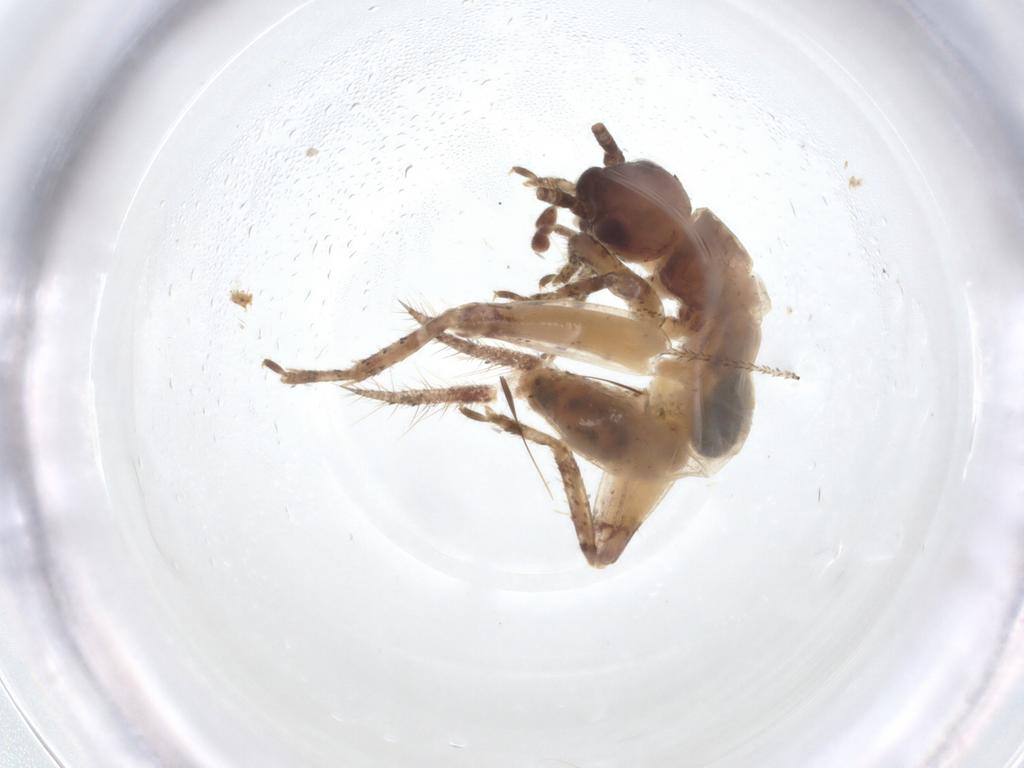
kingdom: Animalia
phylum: Arthropoda
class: Insecta
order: Diptera
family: Cecidomyiidae
